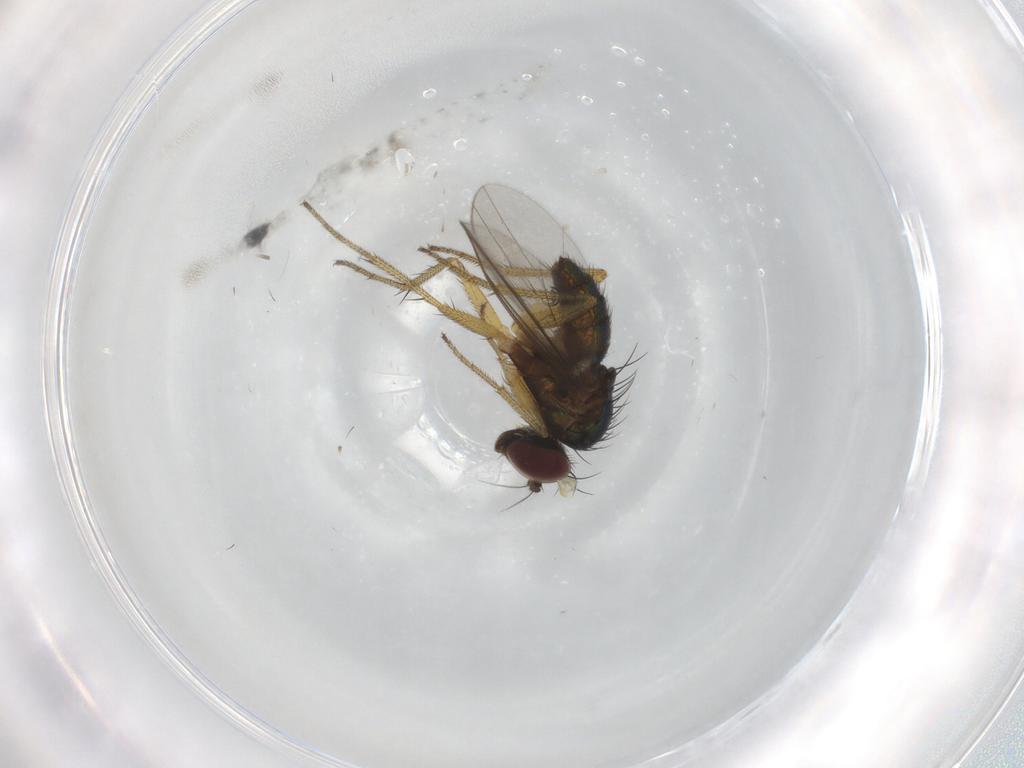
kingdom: Animalia
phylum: Arthropoda
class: Insecta
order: Diptera
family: Chironomidae
